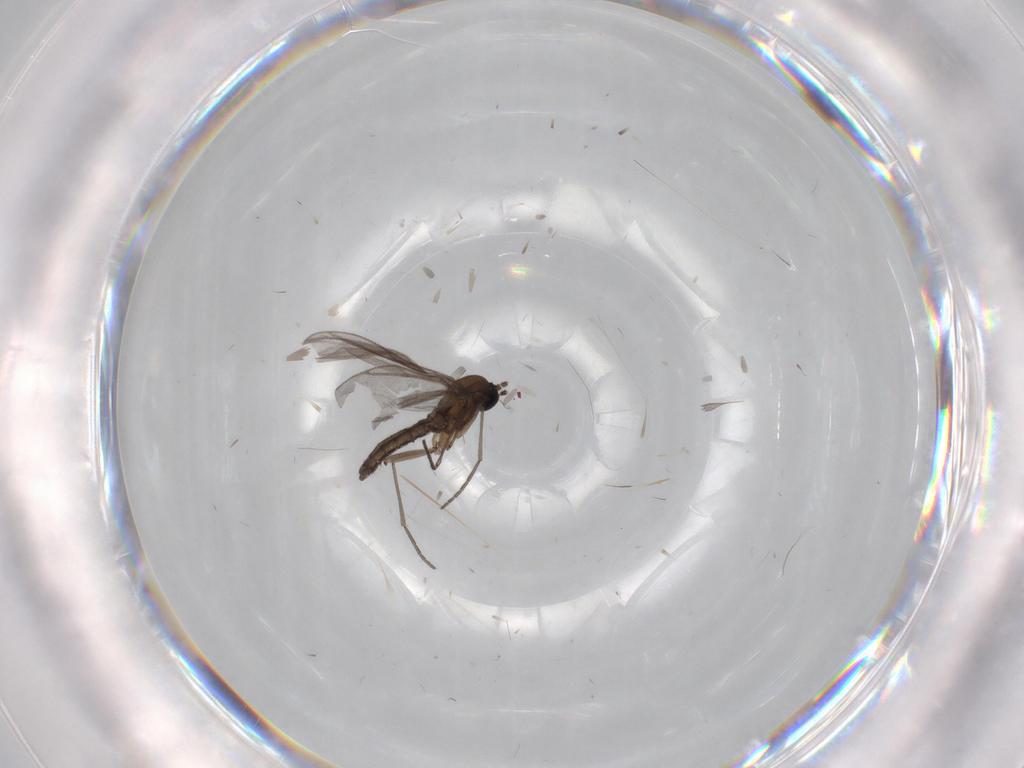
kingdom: Animalia
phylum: Arthropoda
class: Insecta
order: Diptera
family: Sciaridae
